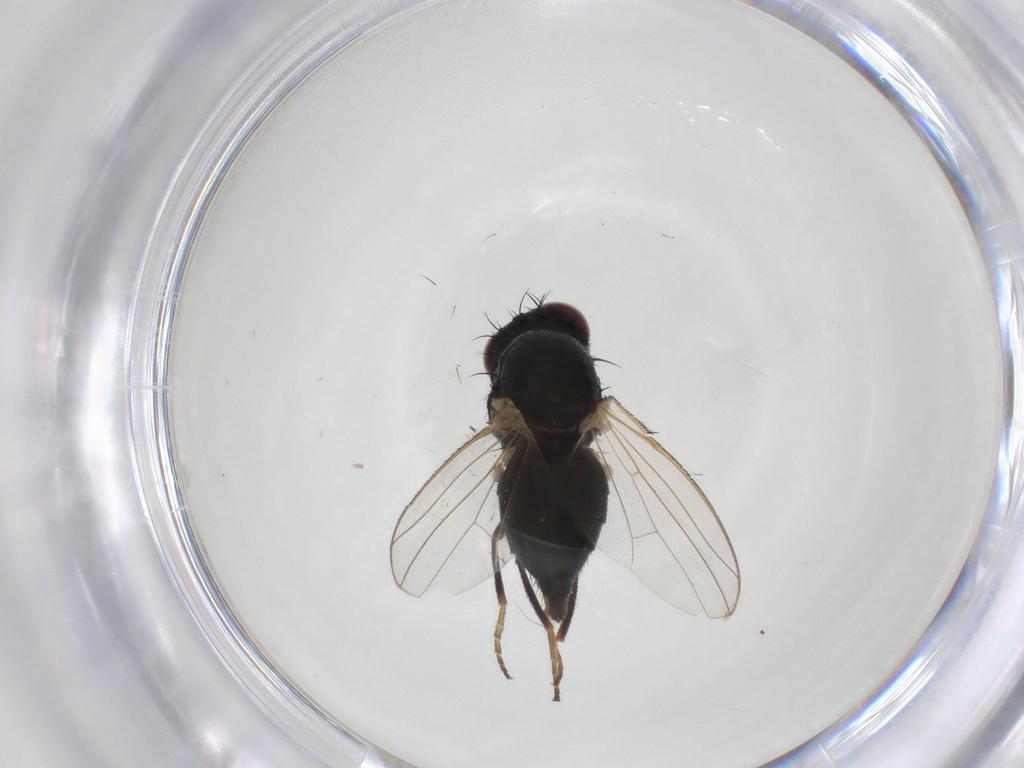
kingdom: Animalia
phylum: Arthropoda
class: Insecta
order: Diptera
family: Carnidae
